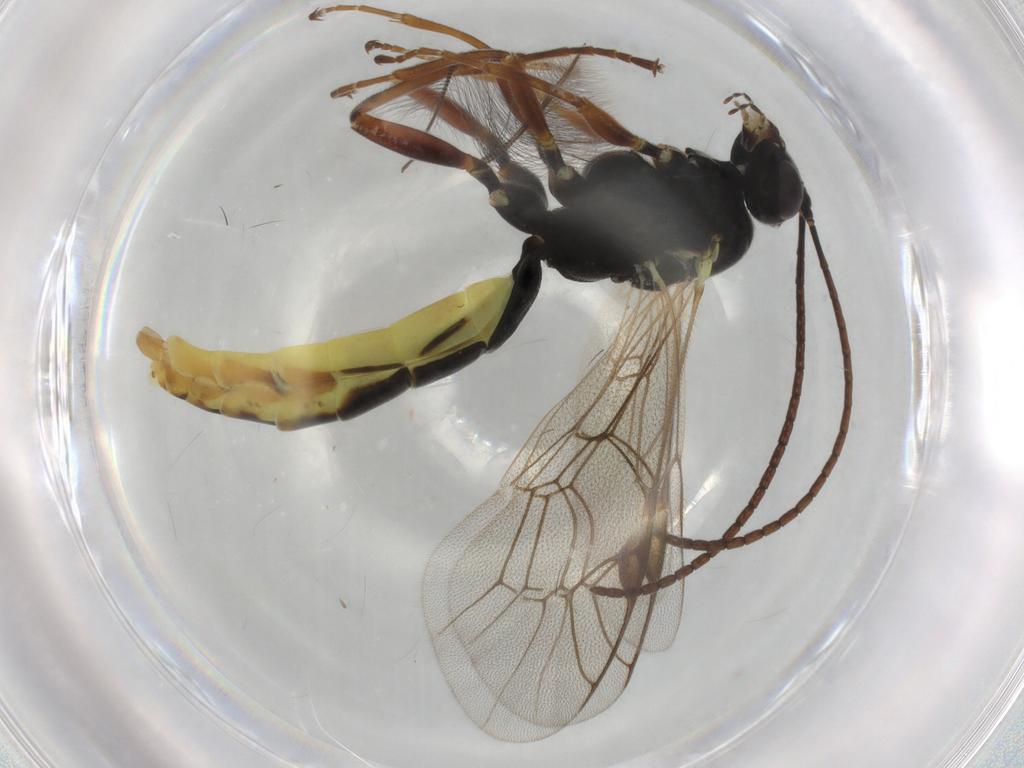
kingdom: Animalia
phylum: Arthropoda
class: Insecta
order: Hymenoptera
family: Ichneumonidae
